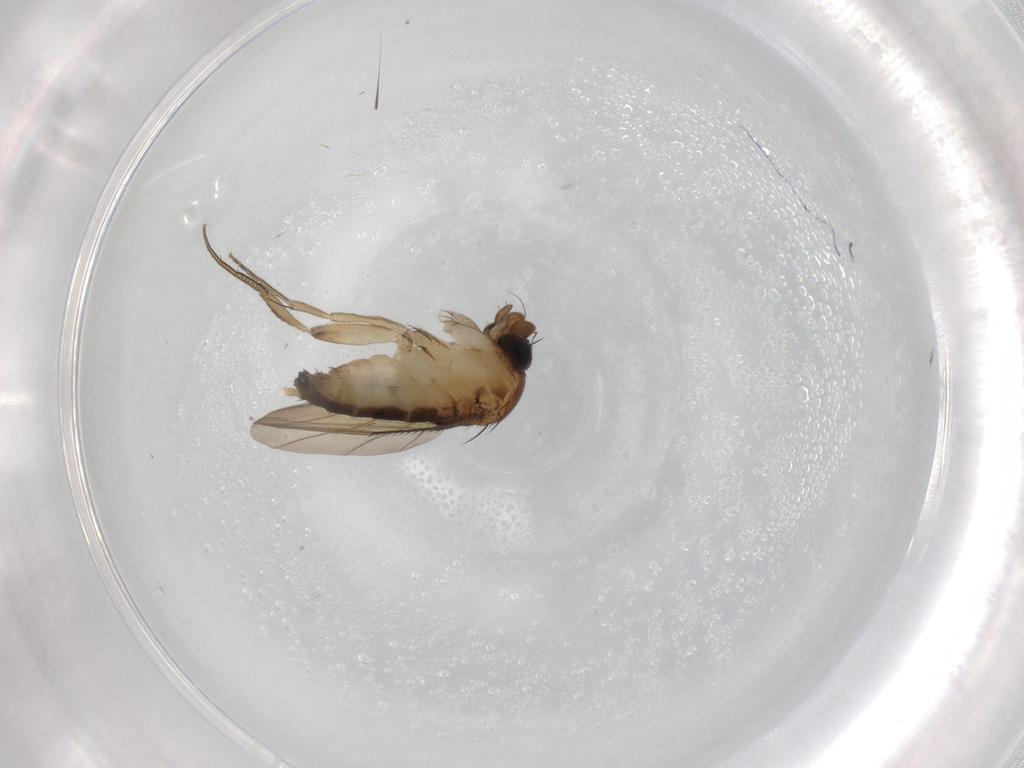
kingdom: Animalia
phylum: Arthropoda
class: Insecta
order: Diptera
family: Phoridae
